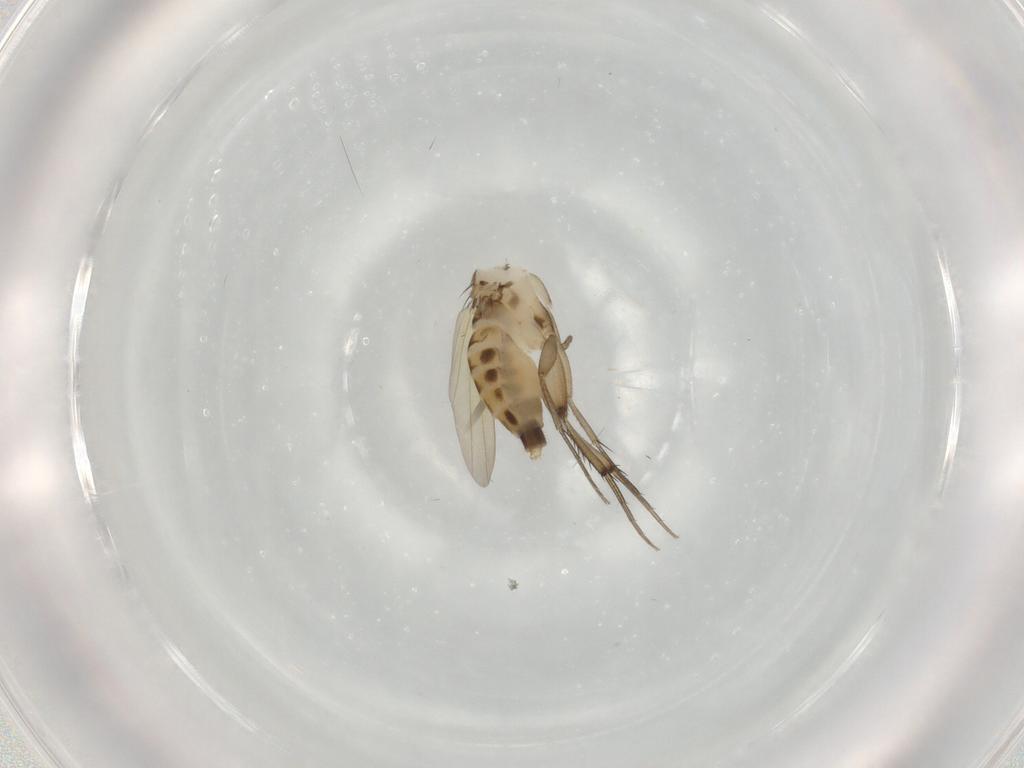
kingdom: Animalia
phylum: Arthropoda
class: Insecta
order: Diptera
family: Phoridae
